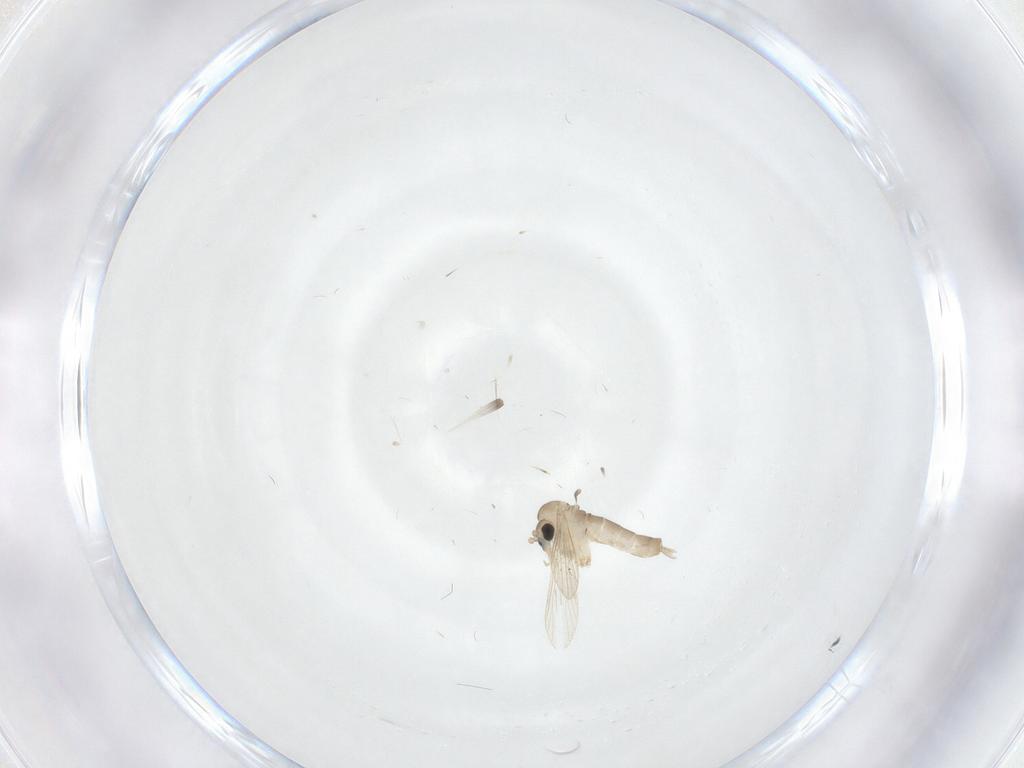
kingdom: Animalia
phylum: Arthropoda
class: Insecta
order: Diptera
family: Psychodidae
